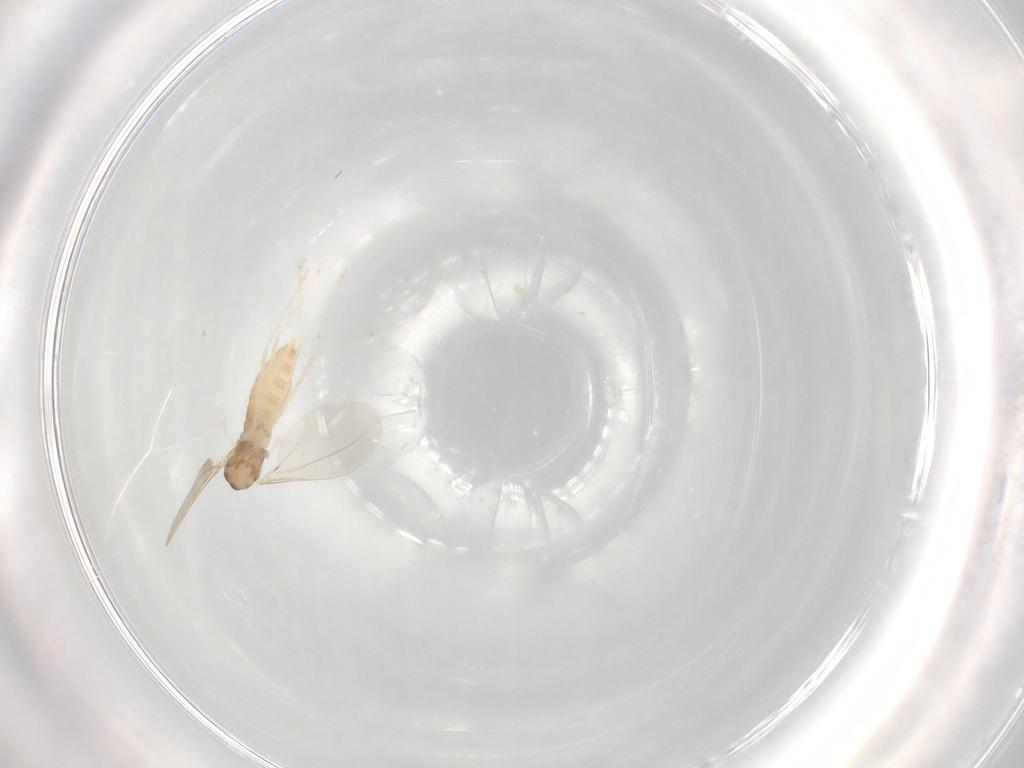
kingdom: Animalia
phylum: Arthropoda
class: Insecta
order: Diptera
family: Cecidomyiidae
